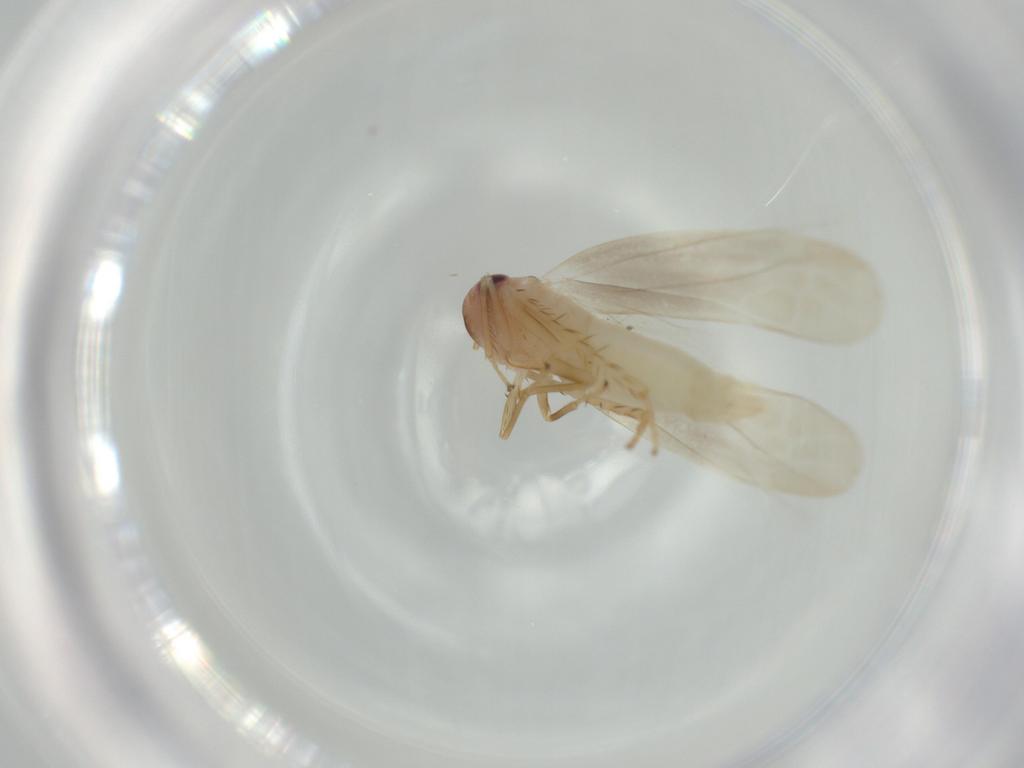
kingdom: Animalia
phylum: Arthropoda
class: Insecta
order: Hemiptera
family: Cicadellidae
